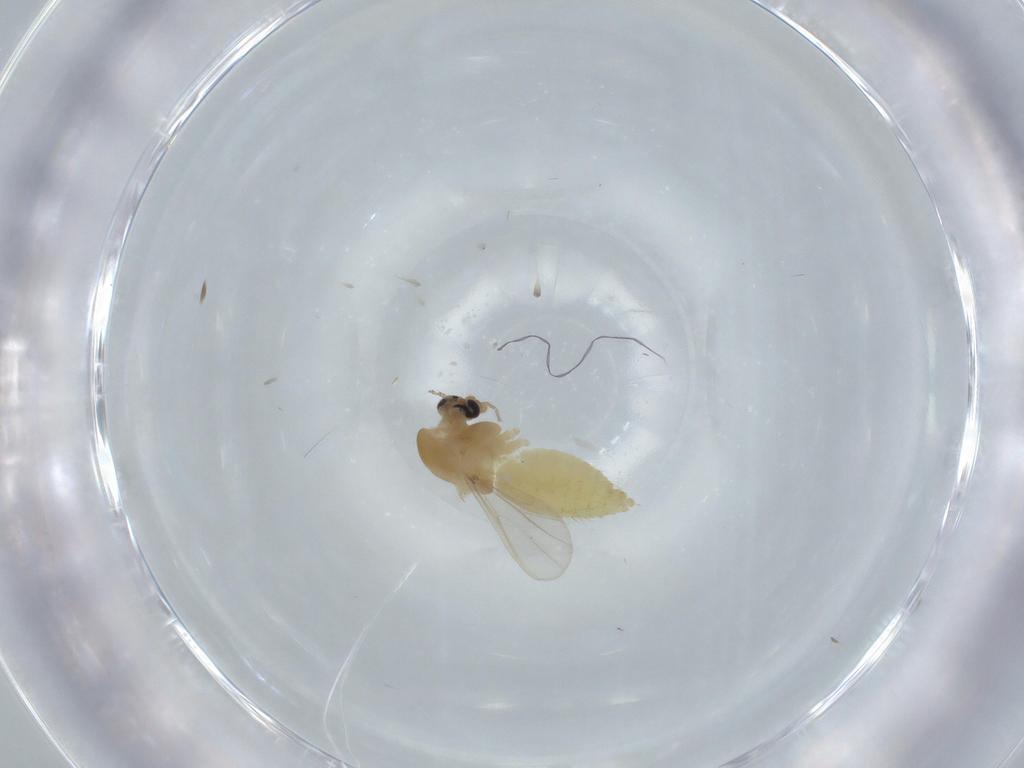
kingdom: Animalia
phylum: Arthropoda
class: Insecta
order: Diptera
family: Chironomidae
